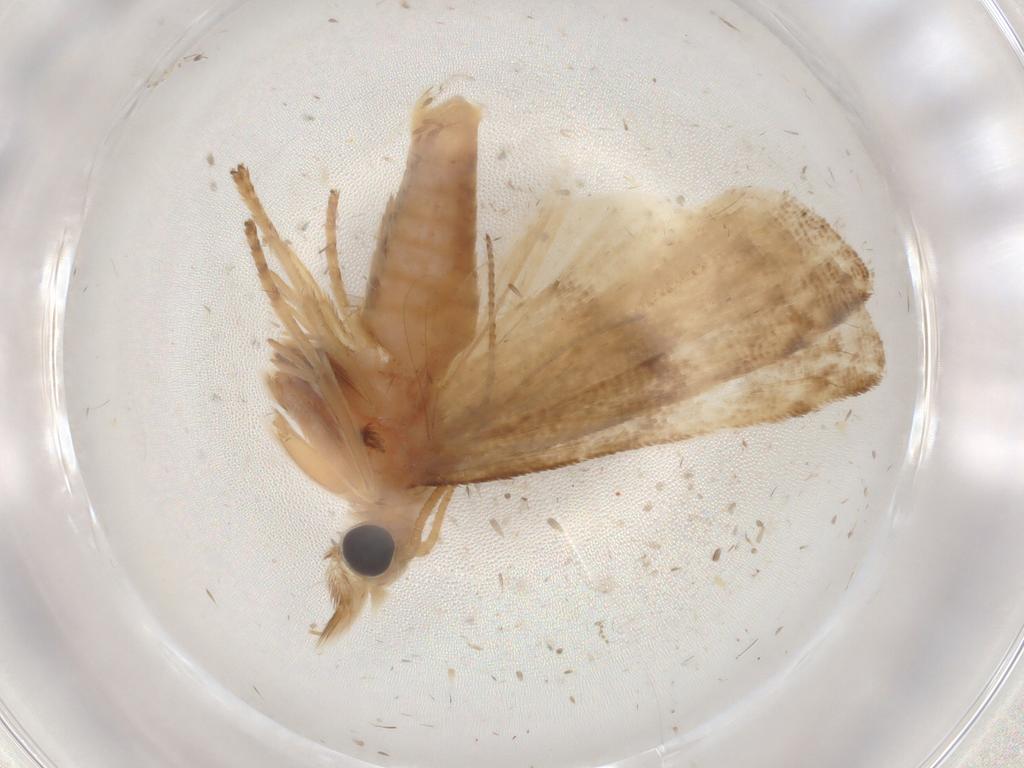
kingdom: Animalia
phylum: Arthropoda
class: Insecta
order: Lepidoptera
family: Pyralidae
